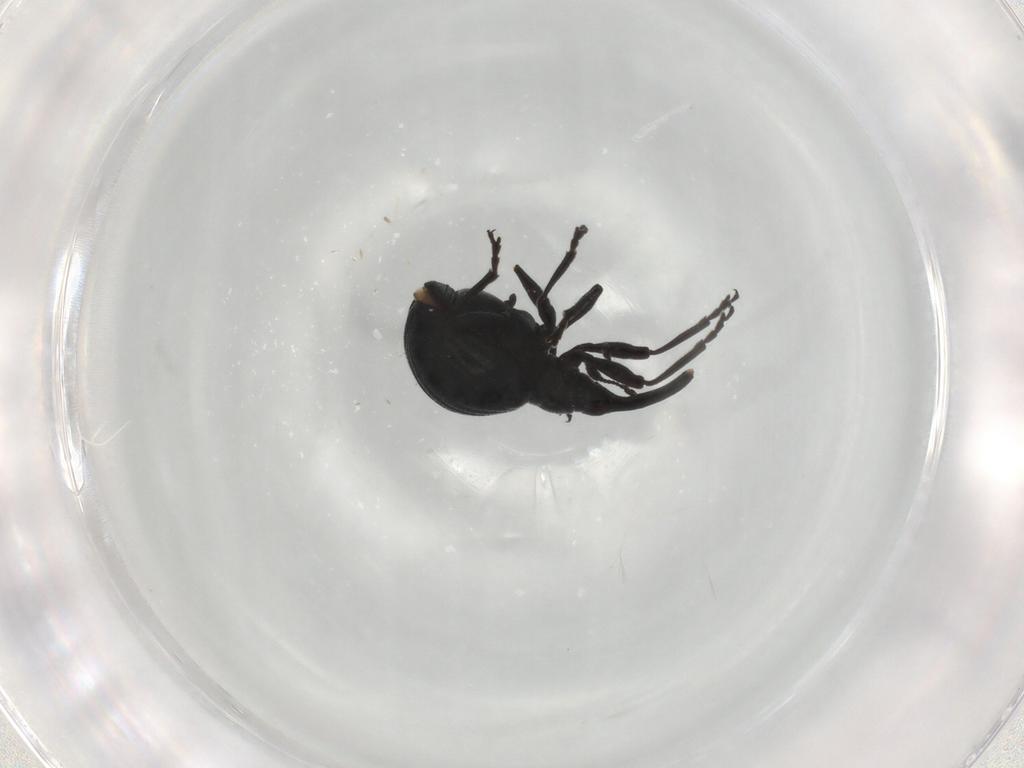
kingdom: Animalia
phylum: Arthropoda
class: Insecta
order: Coleoptera
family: Brentidae
